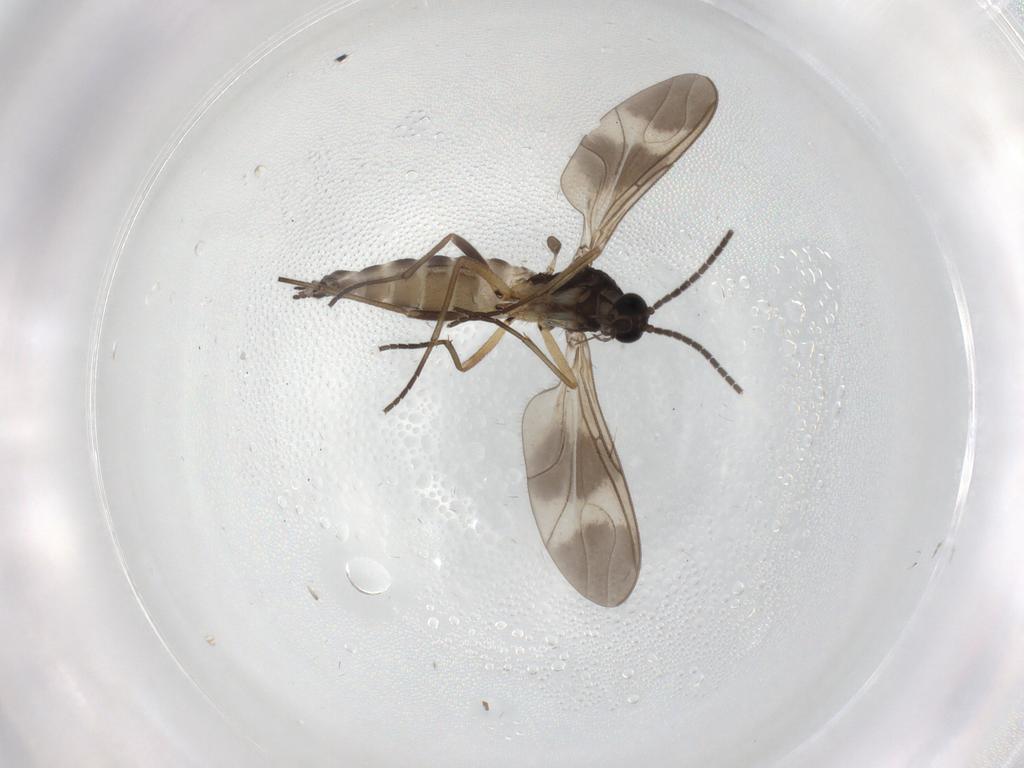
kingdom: Animalia
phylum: Arthropoda
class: Insecta
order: Diptera
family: Sciaridae
